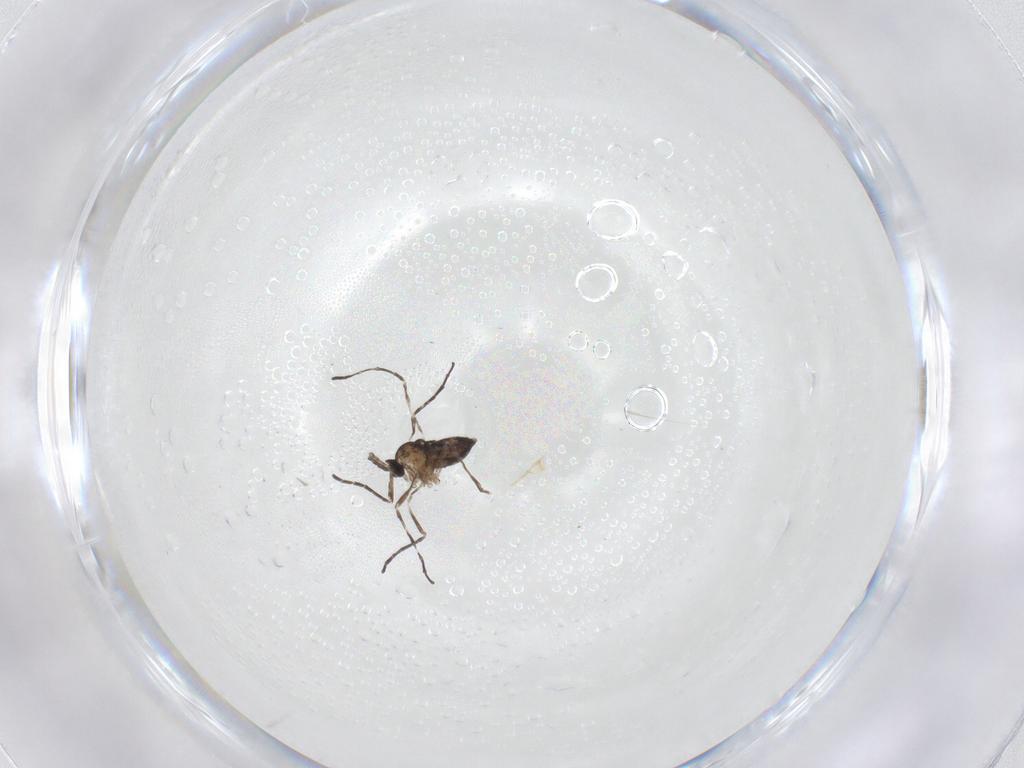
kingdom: Animalia
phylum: Arthropoda
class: Insecta
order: Diptera
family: Cecidomyiidae
